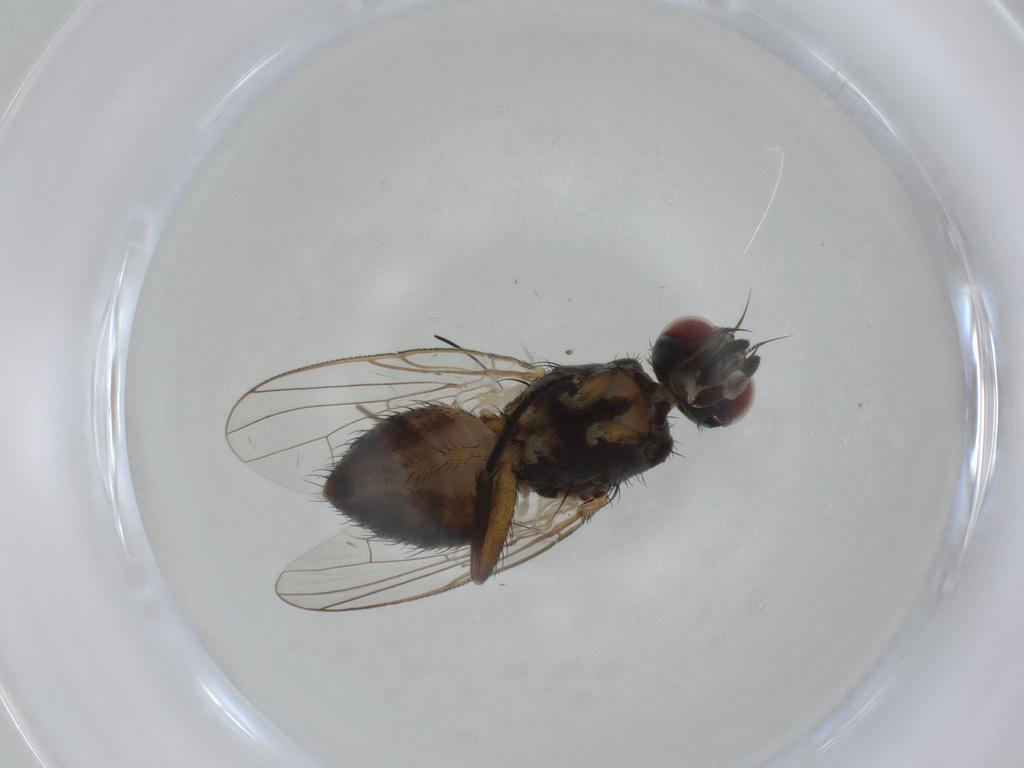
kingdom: Animalia
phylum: Arthropoda
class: Insecta
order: Diptera
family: Muscidae
